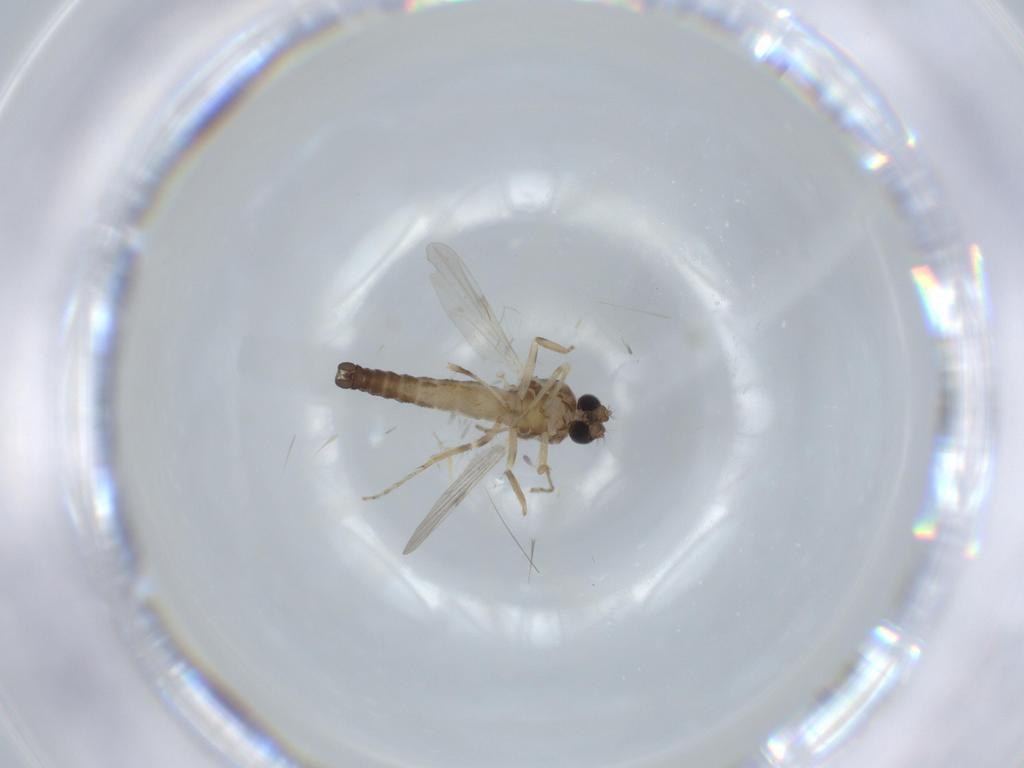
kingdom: Animalia
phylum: Arthropoda
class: Insecta
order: Diptera
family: Ceratopogonidae
